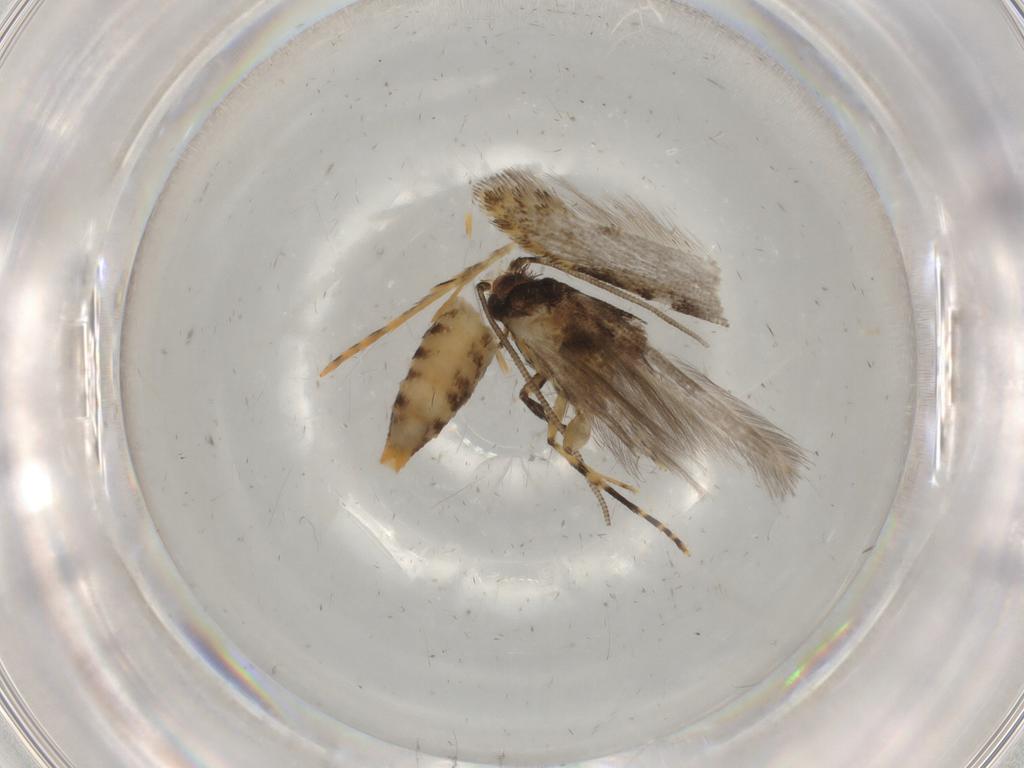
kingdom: Animalia
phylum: Arthropoda
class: Insecta
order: Lepidoptera
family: Tineidae
